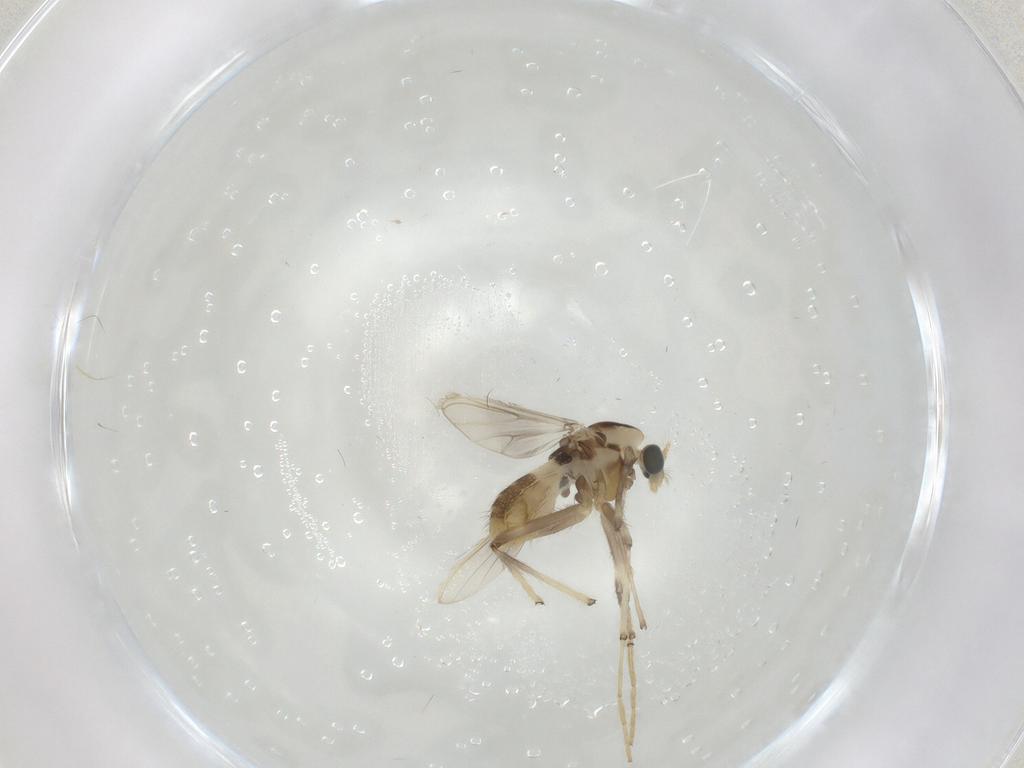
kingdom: Animalia
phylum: Arthropoda
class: Insecta
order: Diptera
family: Chironomidae
